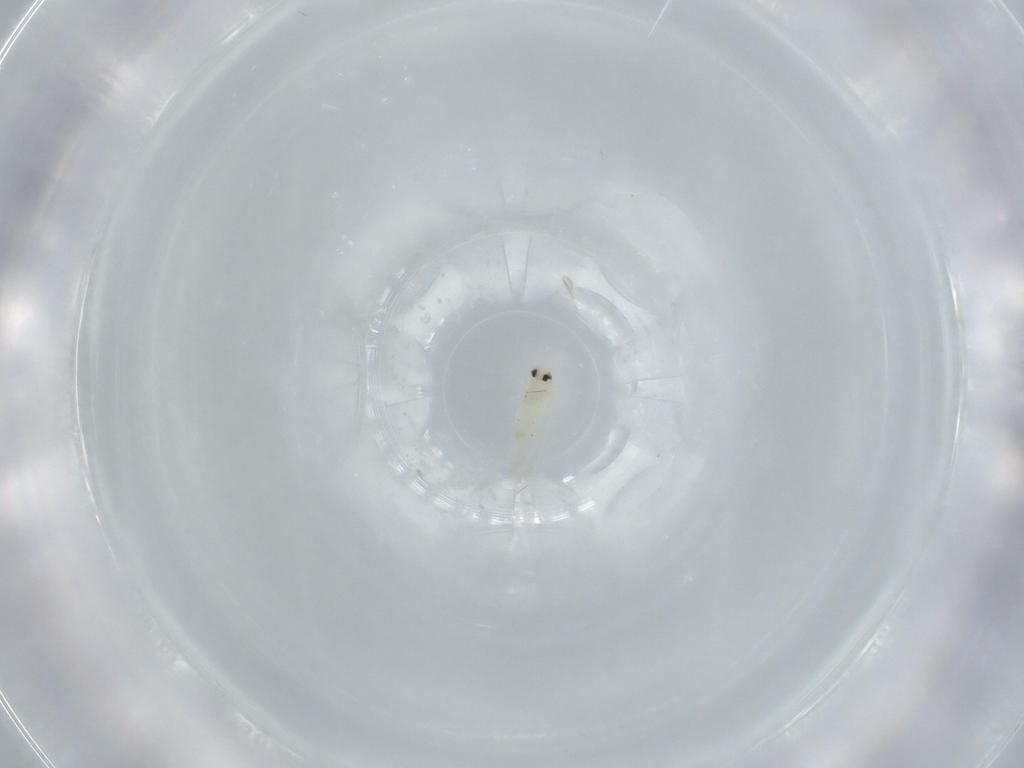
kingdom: Animalia
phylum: Arthropoda
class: Insecta
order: Hemiptera
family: Aleyrodidae
